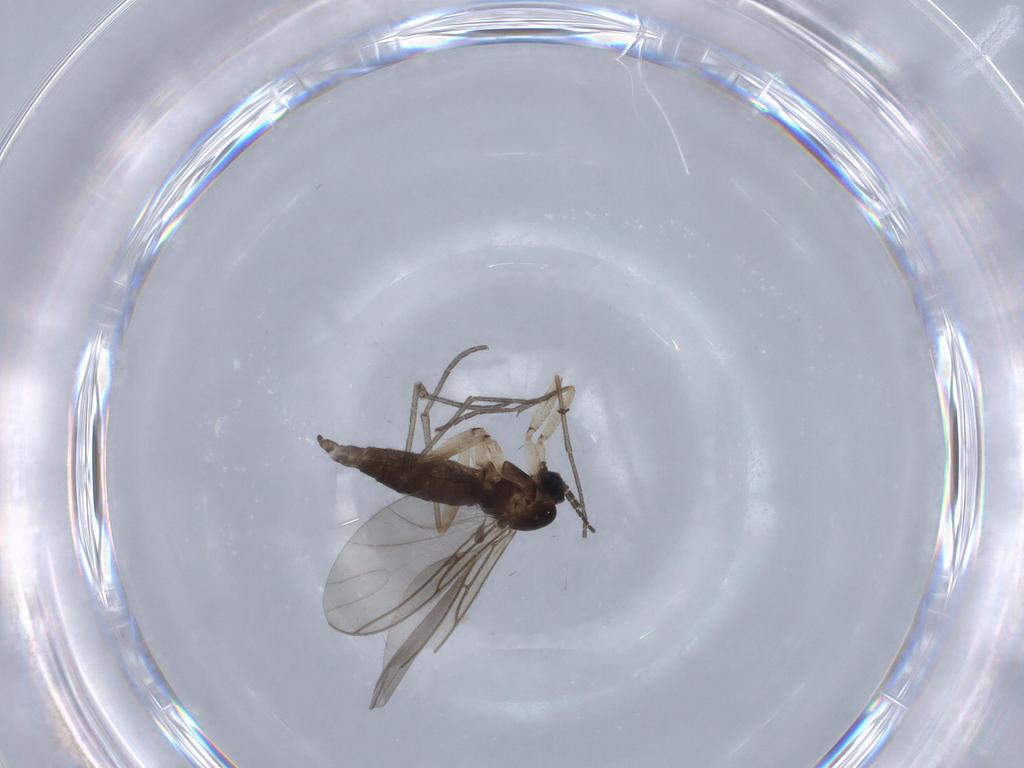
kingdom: Animalia
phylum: Arthropoda
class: Insecta
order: Diptera
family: Sciaridae
